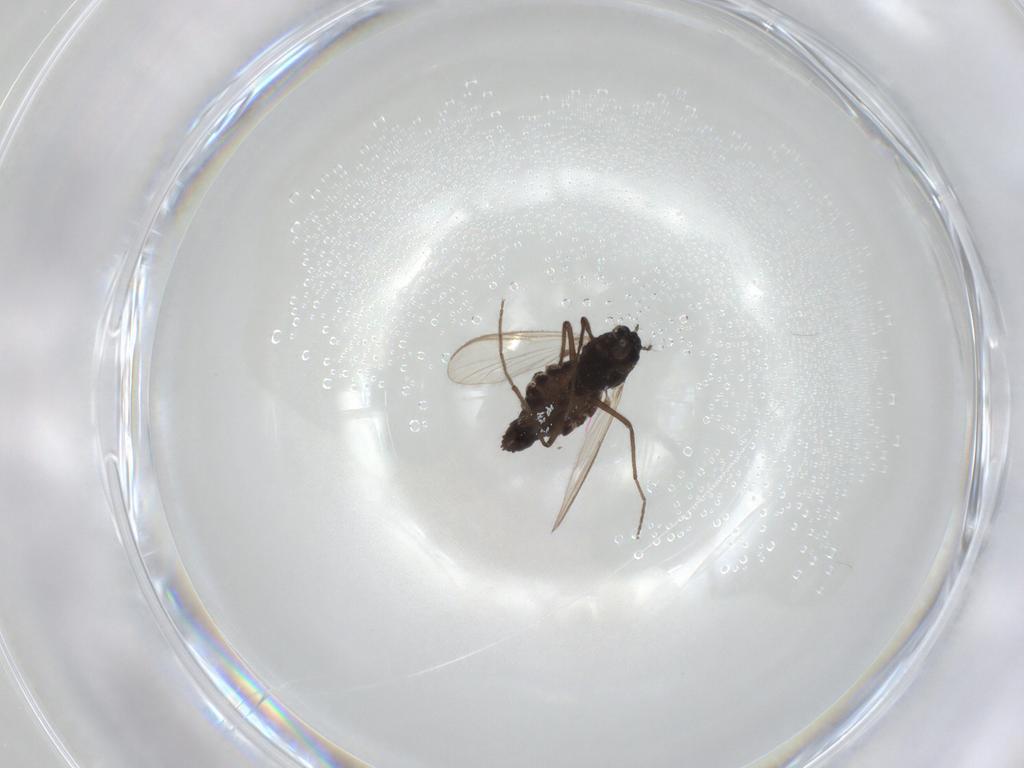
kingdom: Animalia
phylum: Arthropoda
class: Insecta
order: Diptera
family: Chironomidae
